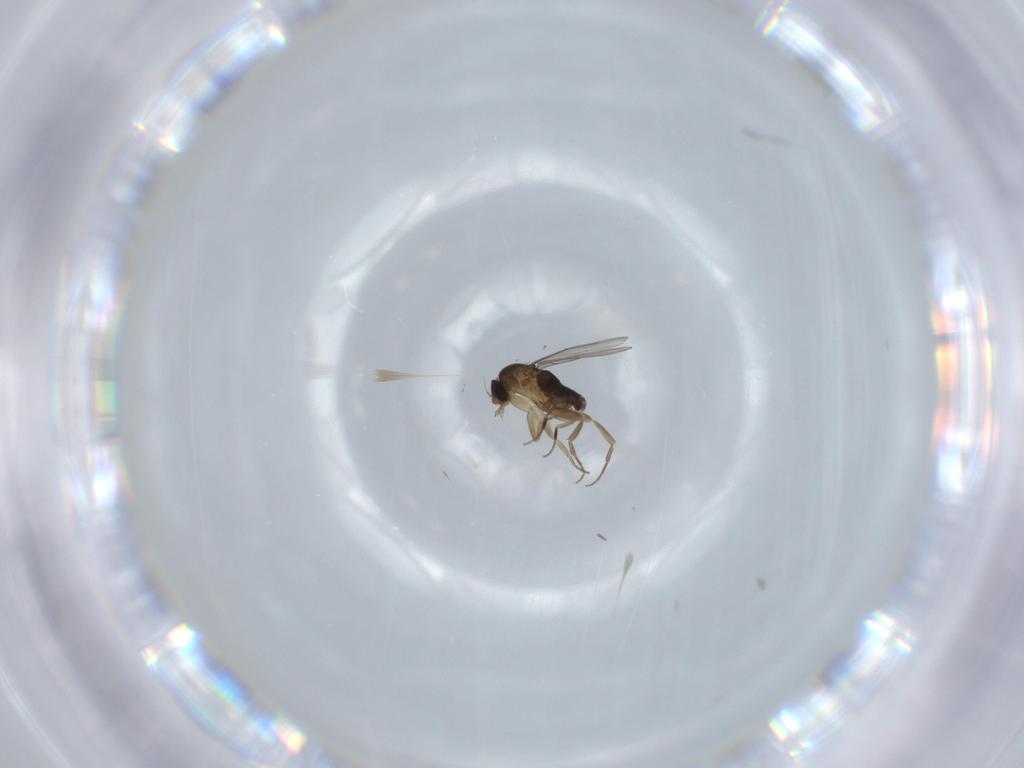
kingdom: Animalia
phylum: Arthropoda
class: Insecta
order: Diptera
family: Phoridae
